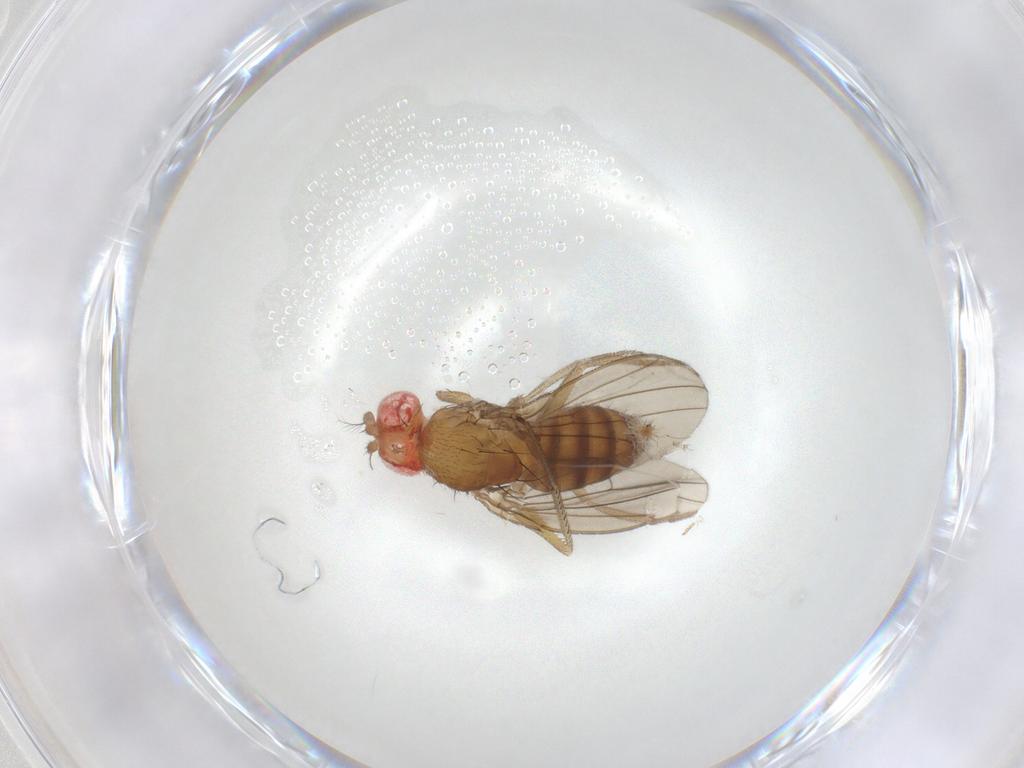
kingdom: Animalia
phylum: Arthropoda
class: Insecta
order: Diptera
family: Drosophilidae
